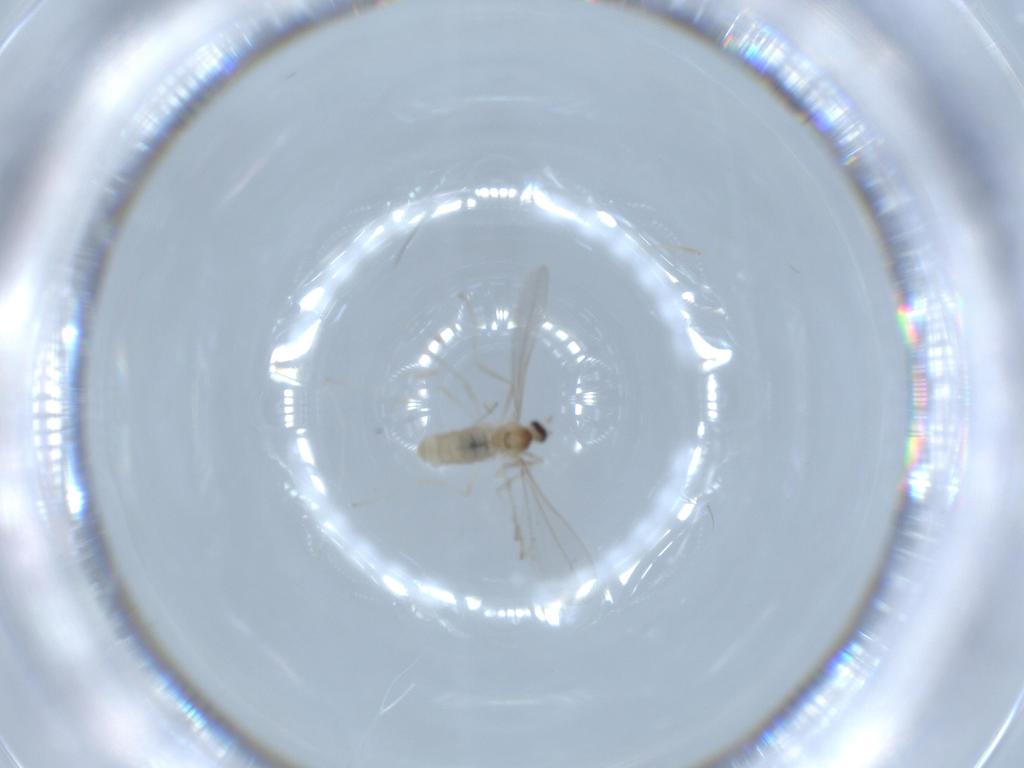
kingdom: Animalia
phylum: Arthropoda
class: Insecta
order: Diptera
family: Cecidomyiidae
